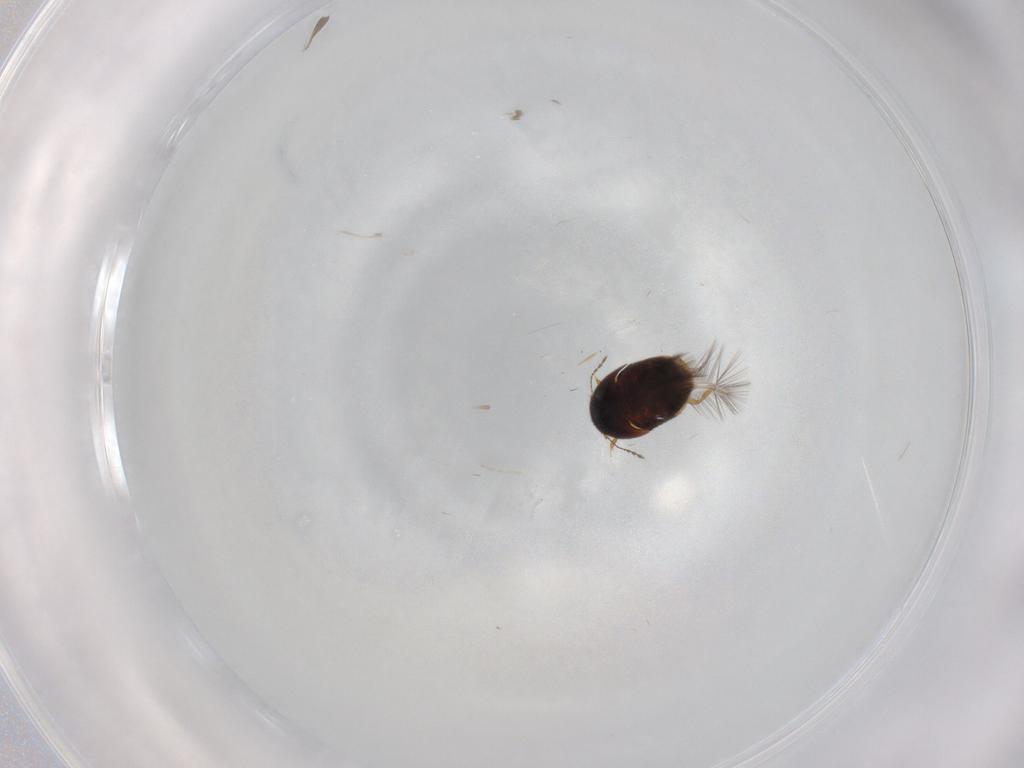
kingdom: Animalia
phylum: Arthropoda
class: Insecta
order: Coleoptera
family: Ptiliidae
